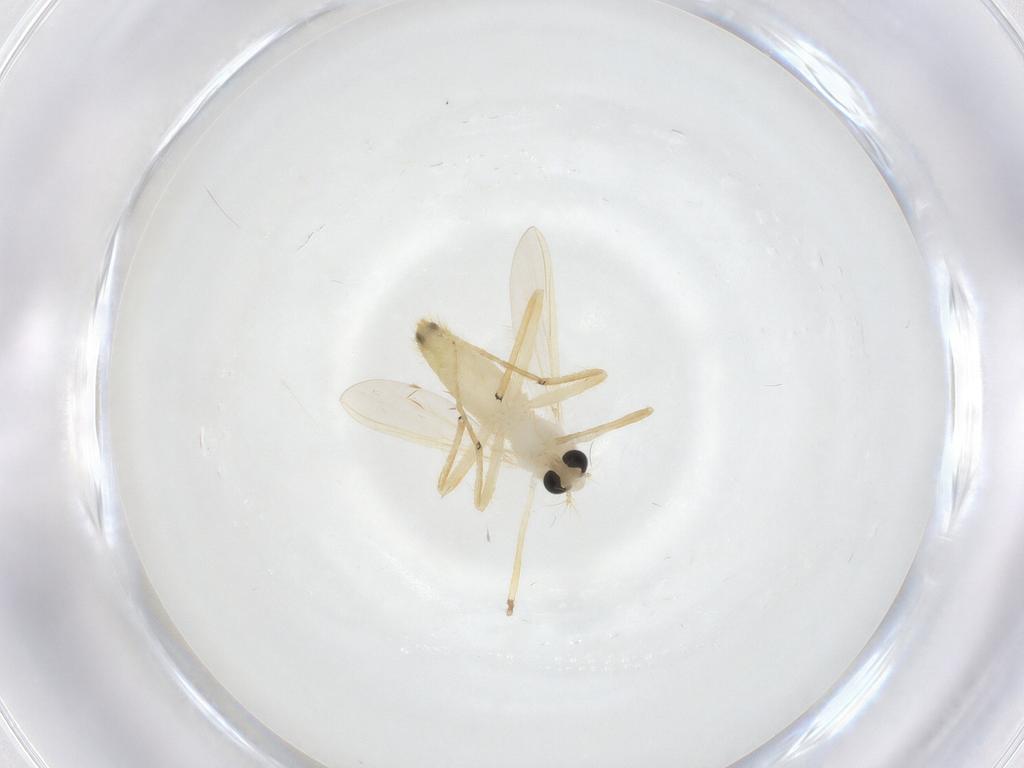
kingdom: Animalia
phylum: Arthropoda
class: Insecta
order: Diptera
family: Chironomidae
